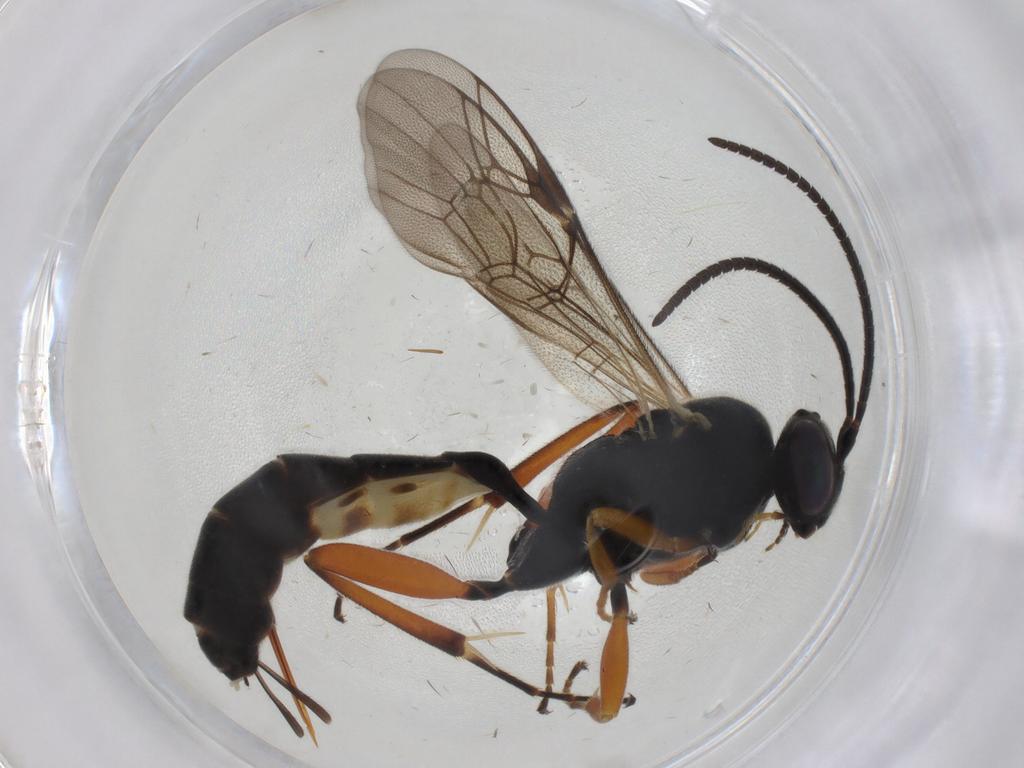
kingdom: Animalia
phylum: Arthropoda
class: Insecta
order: Hymenoptera
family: Ichneumonidae
